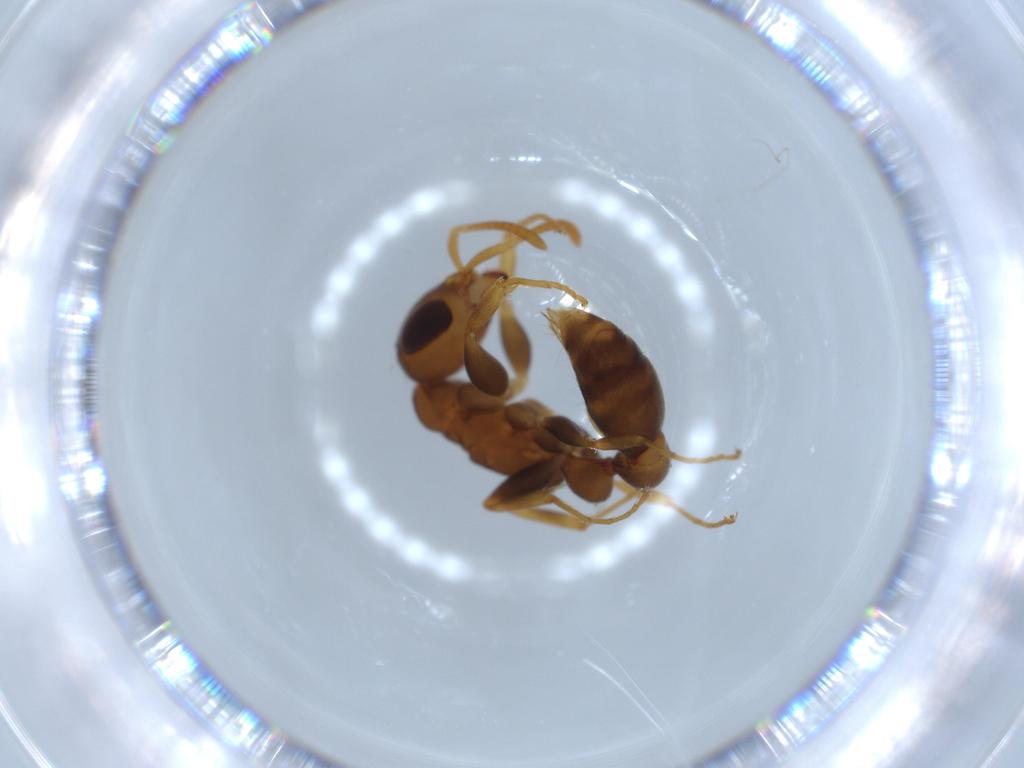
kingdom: Animalia
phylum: Arthropoda
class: Insecta
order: Hymenoptera
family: Formicidae
